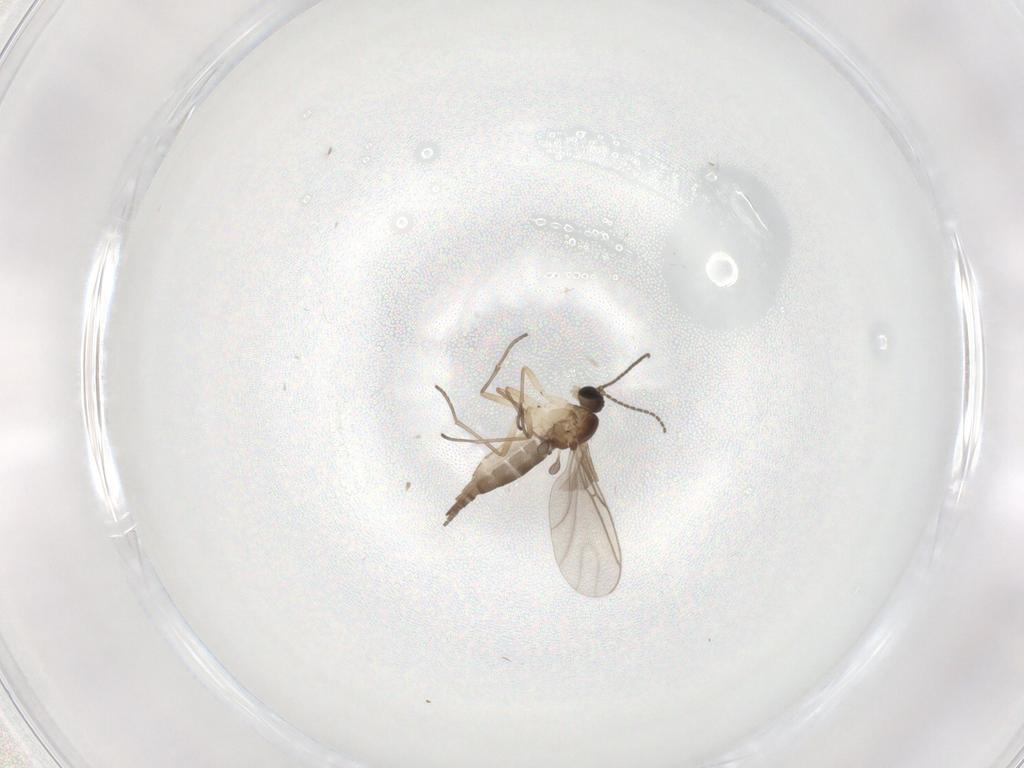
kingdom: Animalia
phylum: Arthropoda
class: Insecta
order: Diptera
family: Sciaridae
